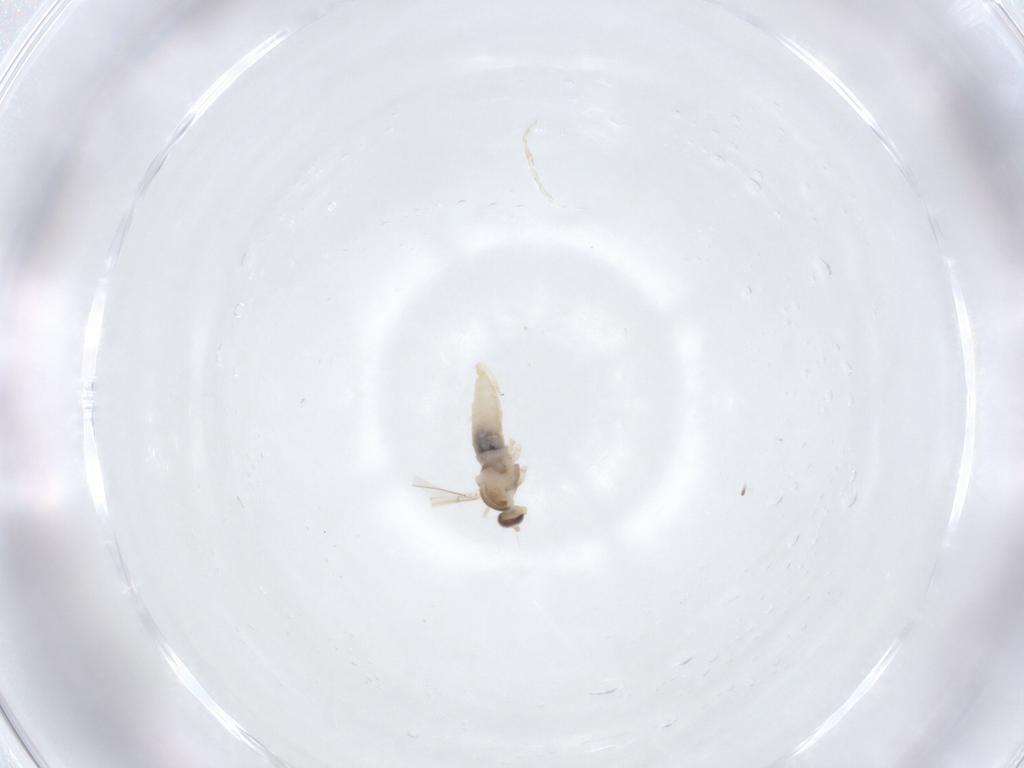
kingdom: Animalia
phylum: Arthropoda
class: Insecta
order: Diptera
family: Cecidomyiidae
